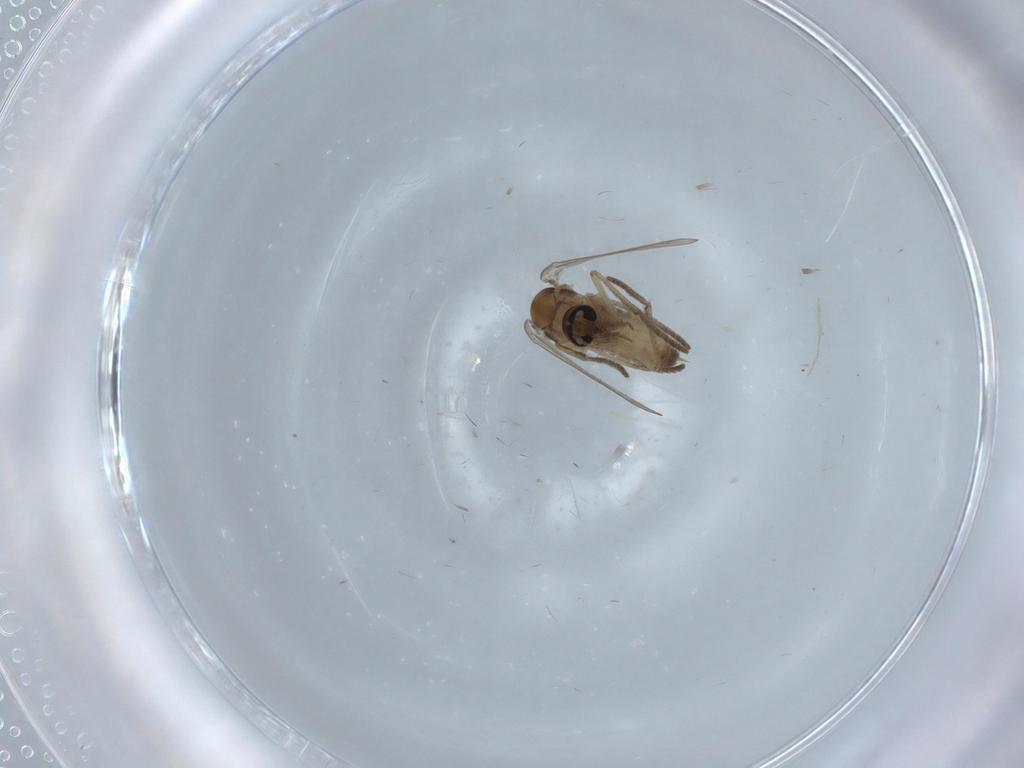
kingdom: Animalia
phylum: Arthropoda
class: Insecta
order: Diptera
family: Psychodidae
